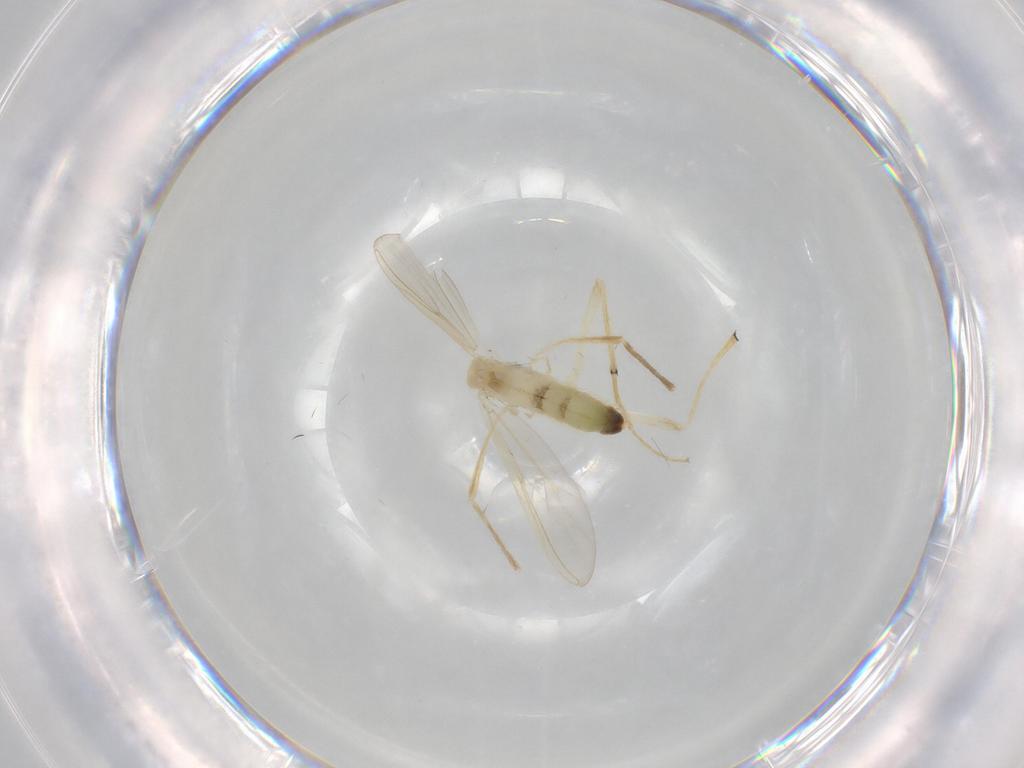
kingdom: Animalia
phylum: Arthropoda
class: Insecta
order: Diptera
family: Chironomidae
